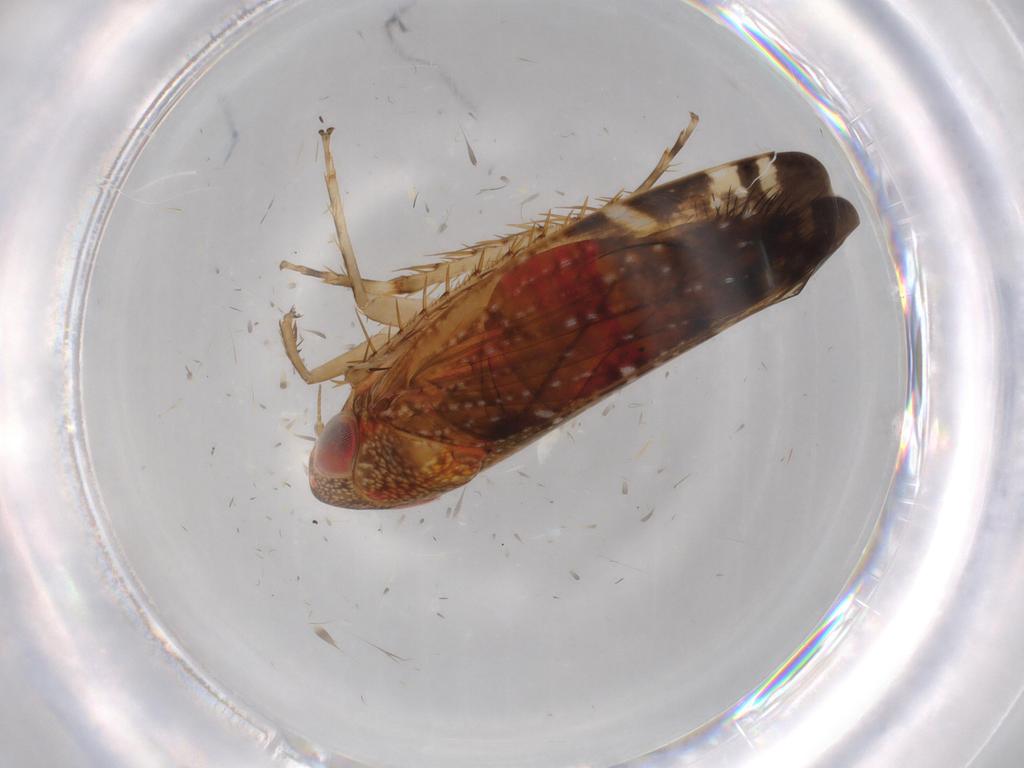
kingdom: Animalia
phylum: Arthropoda
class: Insecta
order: Hemiptera
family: Cicadellidae
